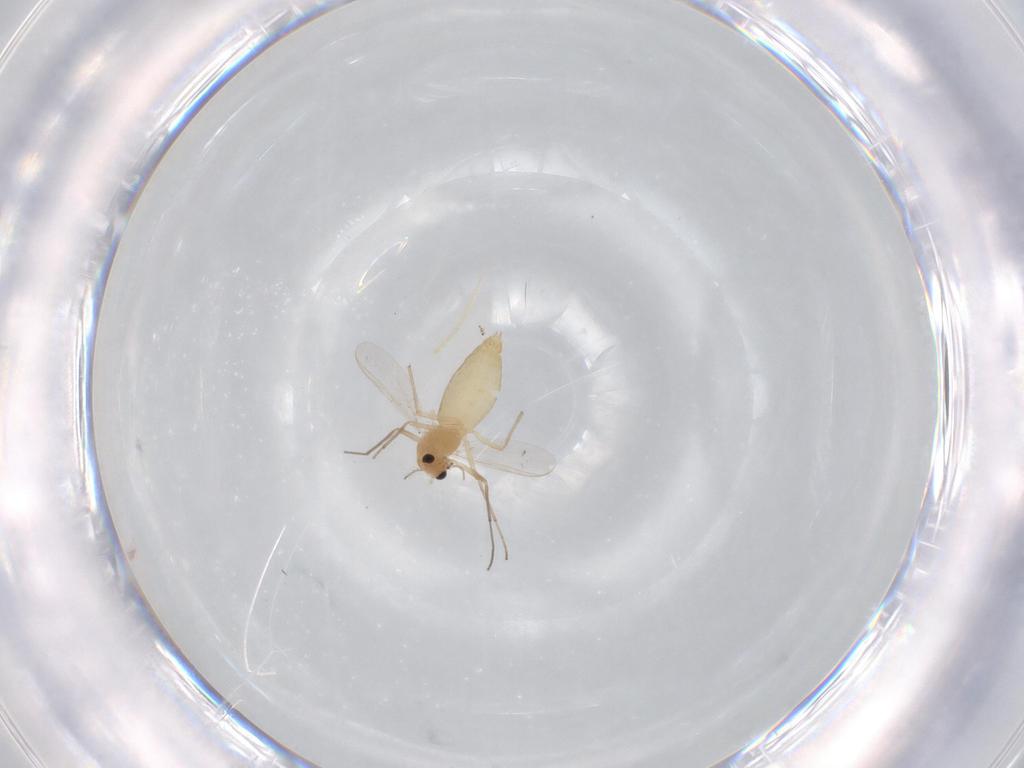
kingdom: Animalia
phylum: Arthropoda
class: Insecta
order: Diptera
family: Chironomidae
